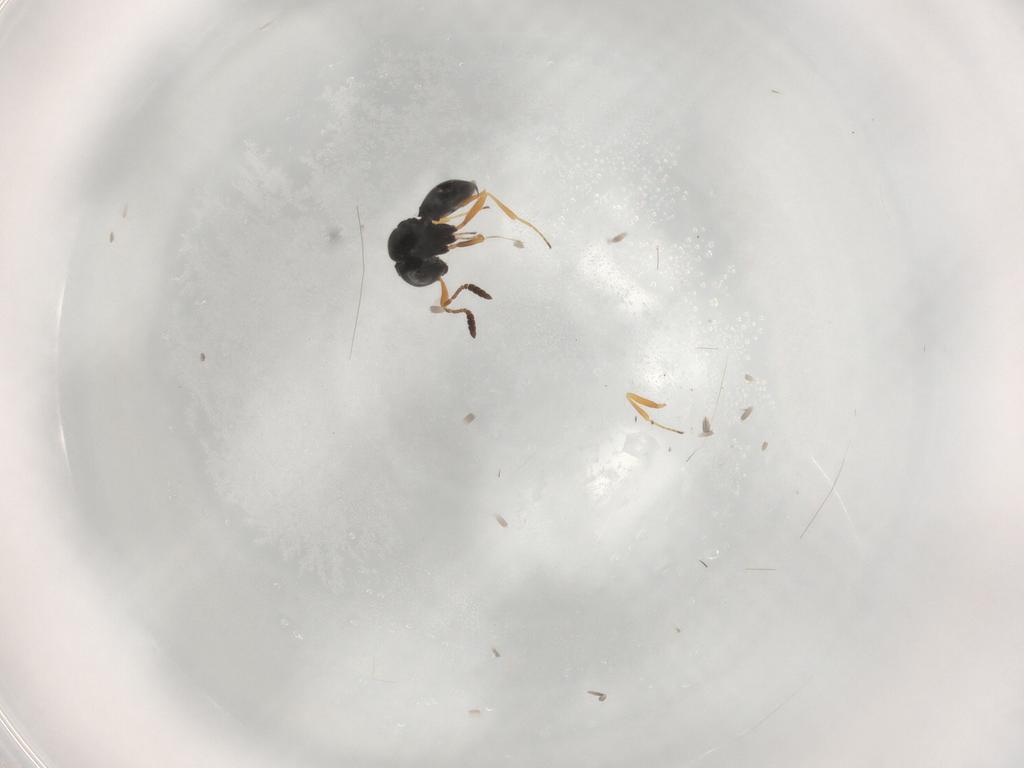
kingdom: Animalia
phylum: Arthropoda
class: Insecta
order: Hymenoptera
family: Scelionidae
